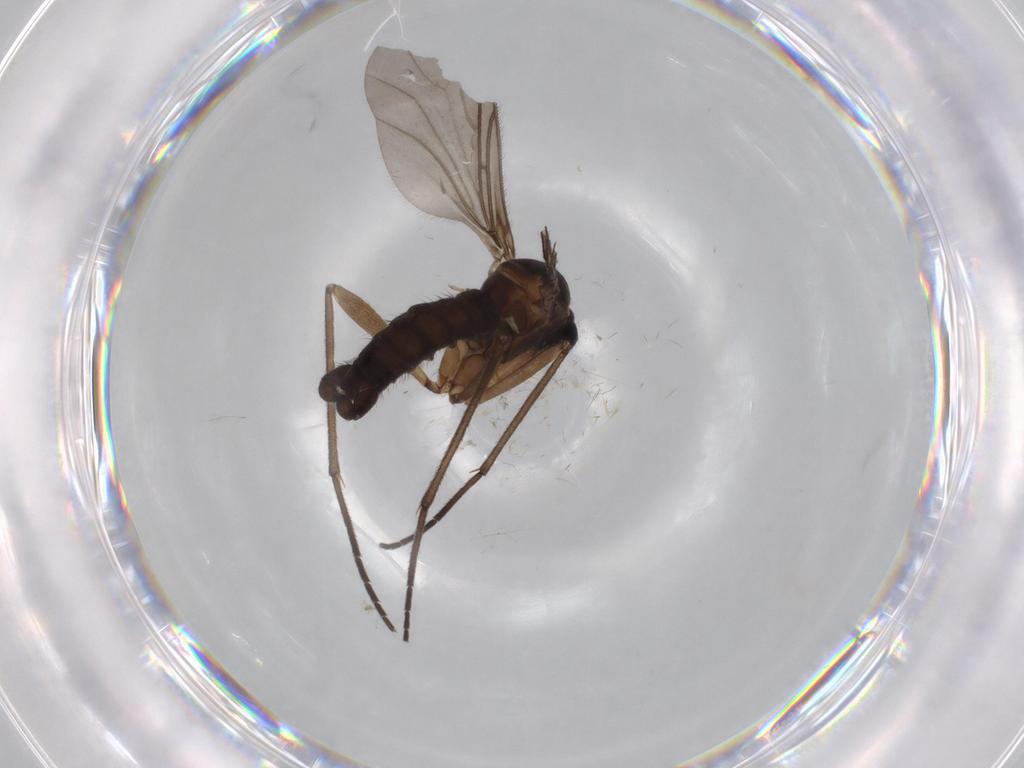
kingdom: Animalia
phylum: Arthropoda
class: Insecta
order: Diptera
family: Sciaridae
